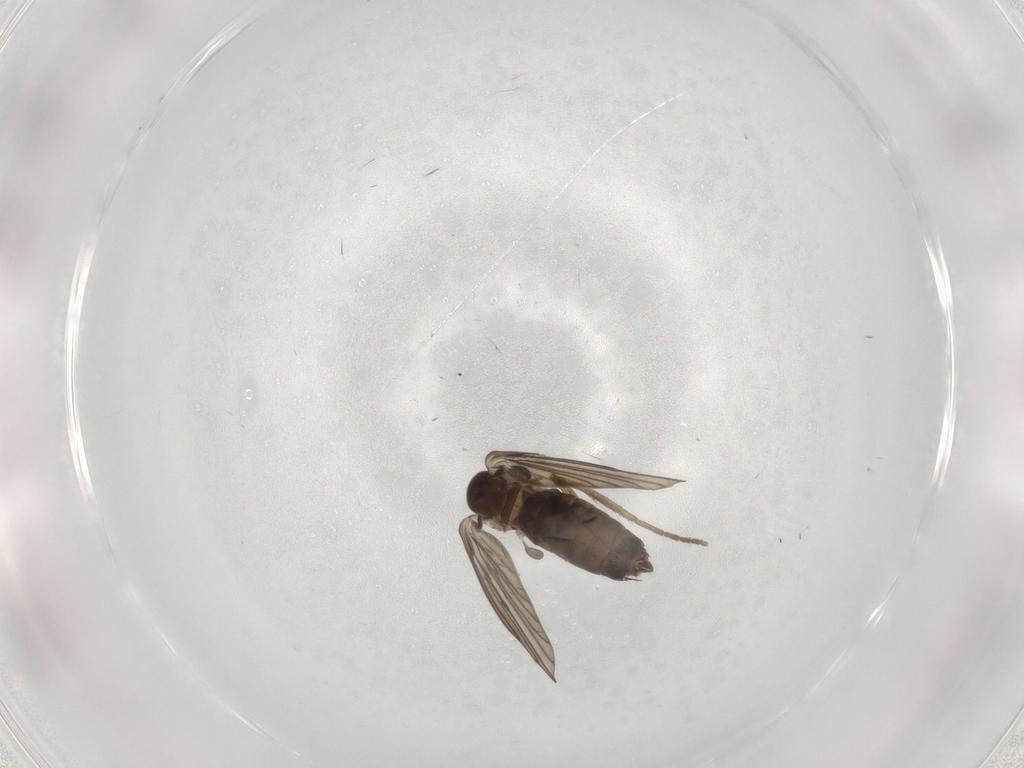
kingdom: Animalia
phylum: Arthropoda
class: Insecta
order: Diptera
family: Chironomidae
